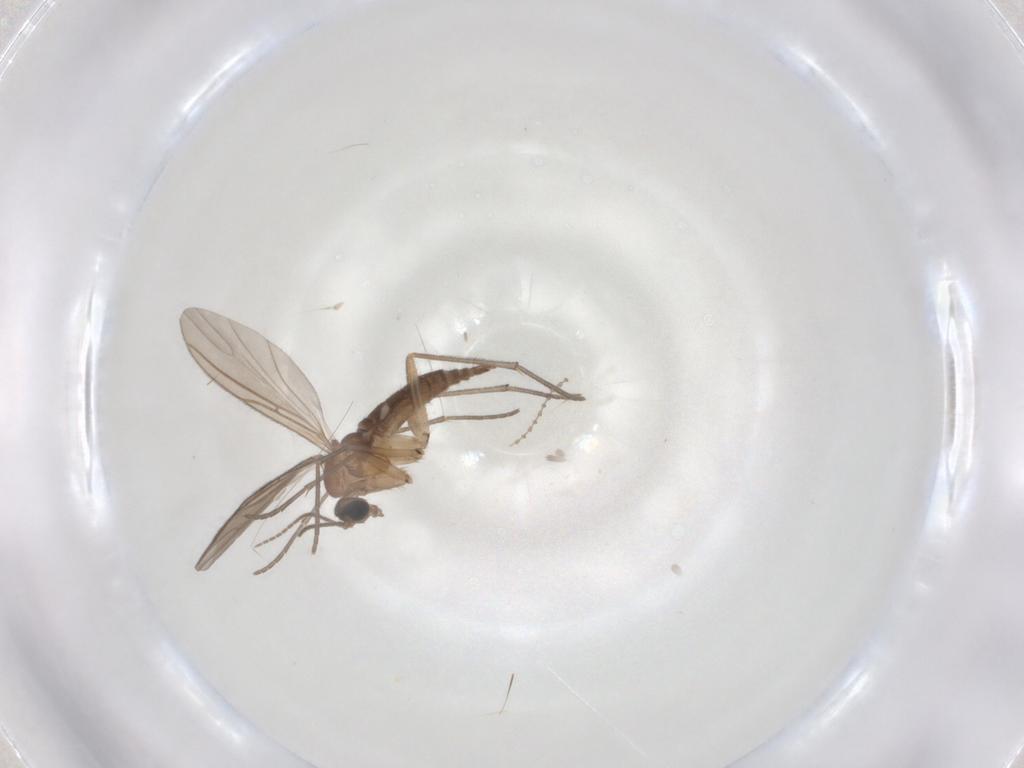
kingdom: Animalia
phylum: Arthropoda
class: Insecta
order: Diptera
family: Sciaridae
